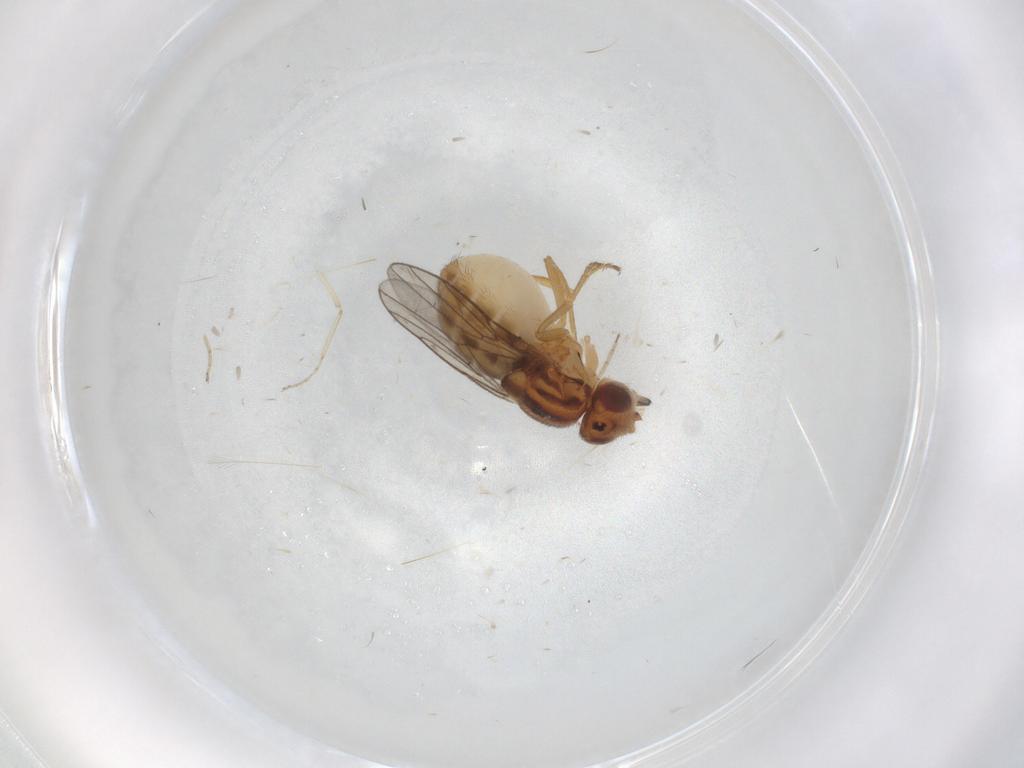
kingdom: Animalia
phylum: Arthropoda
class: Insecta
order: Diptera
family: Chloropidae
